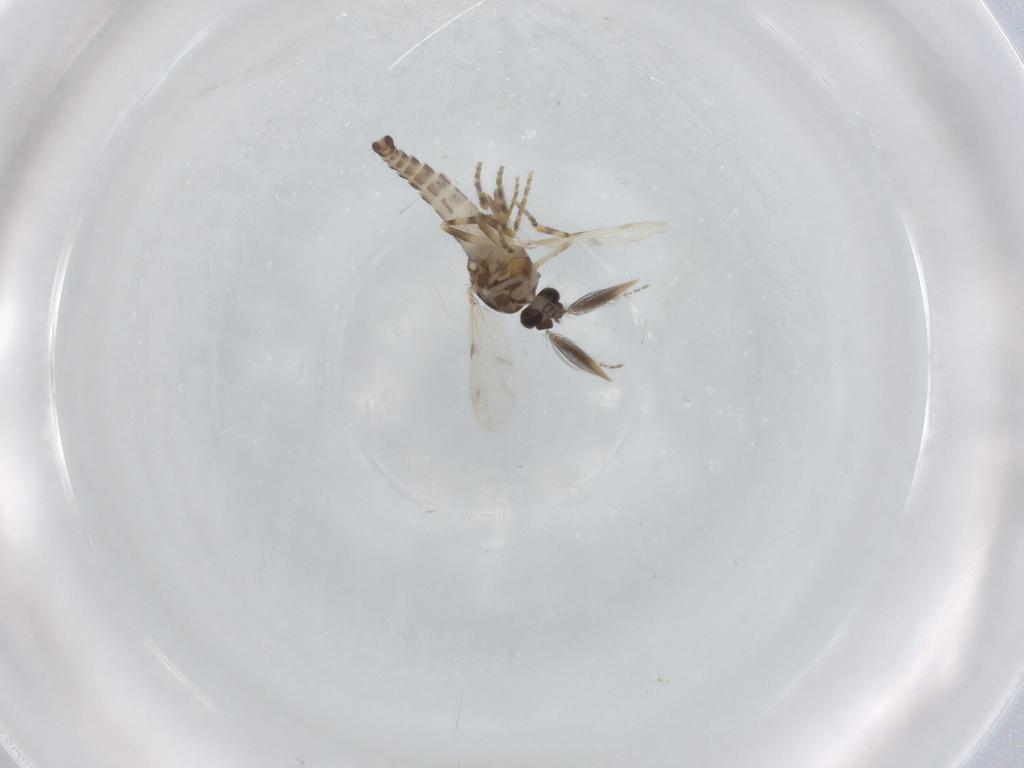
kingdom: Animalia
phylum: Arthropoda
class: Insecta
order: Diptera
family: Ceratopogonidae
